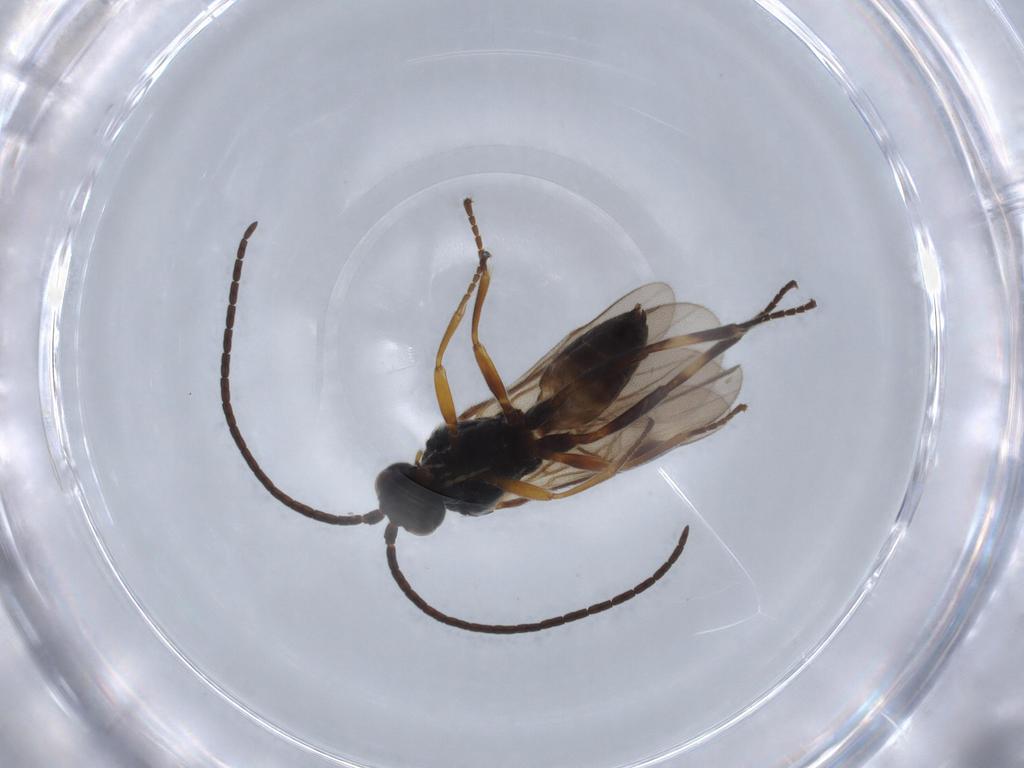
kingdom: Animalia
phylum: Arthropoda
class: Insecta
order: Hymenoptera
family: Braconidae
